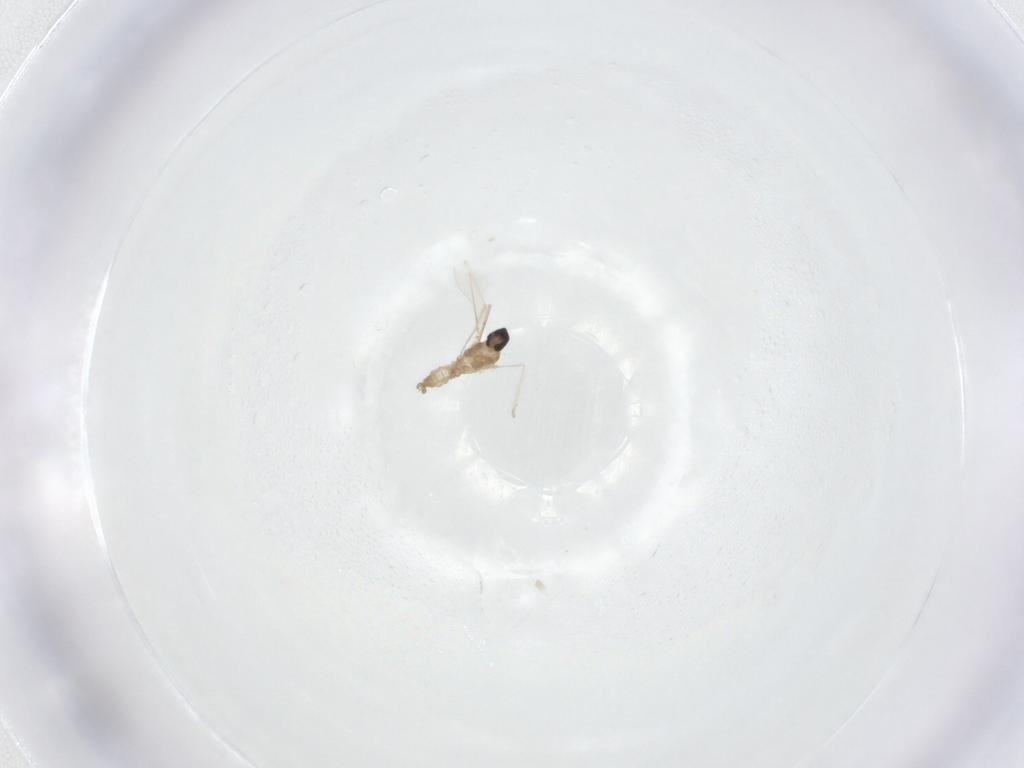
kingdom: Animalia
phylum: Arthropoda
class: Insecta
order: Diptera
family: Cecidomyiidae
